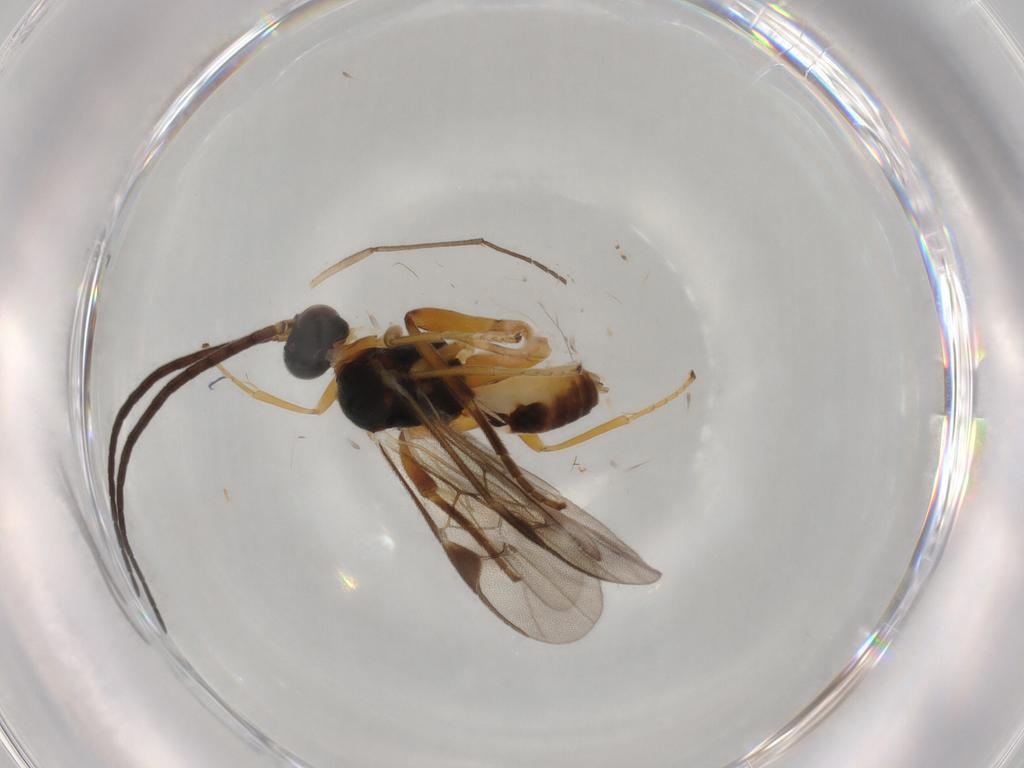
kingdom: Animalia
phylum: Arthropoda
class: Insecta
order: Hymenoptera
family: Braconidae
